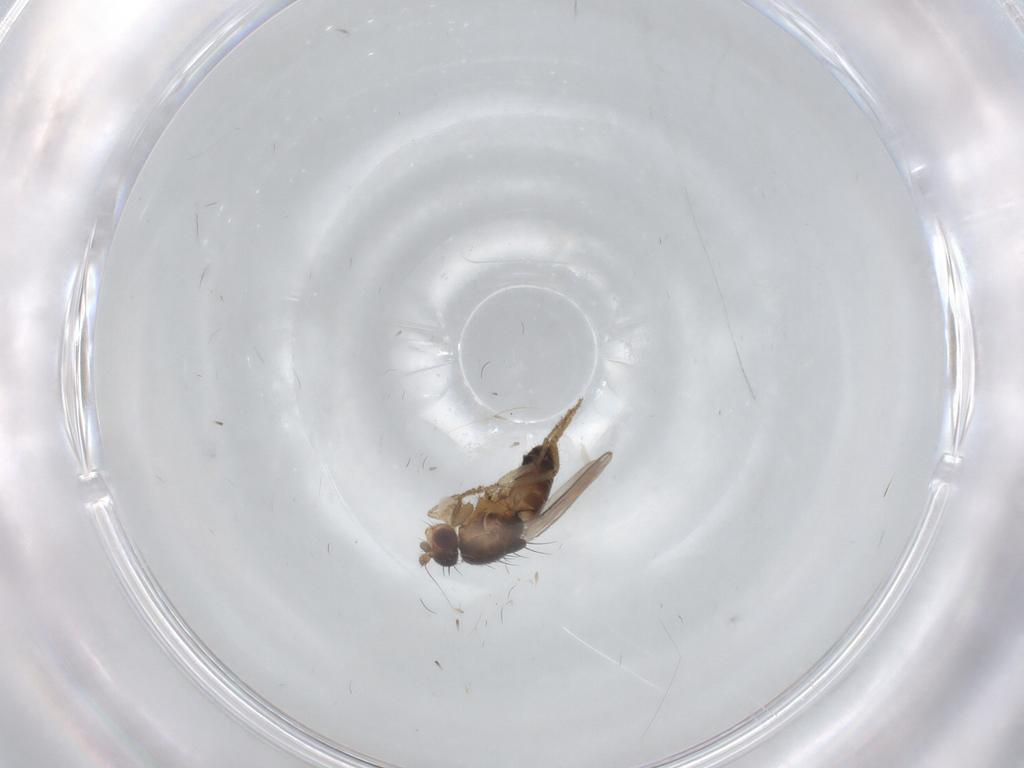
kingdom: Animalia
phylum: Arthropoda
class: Insecta
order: Diptera
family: Cecidomyiidae
